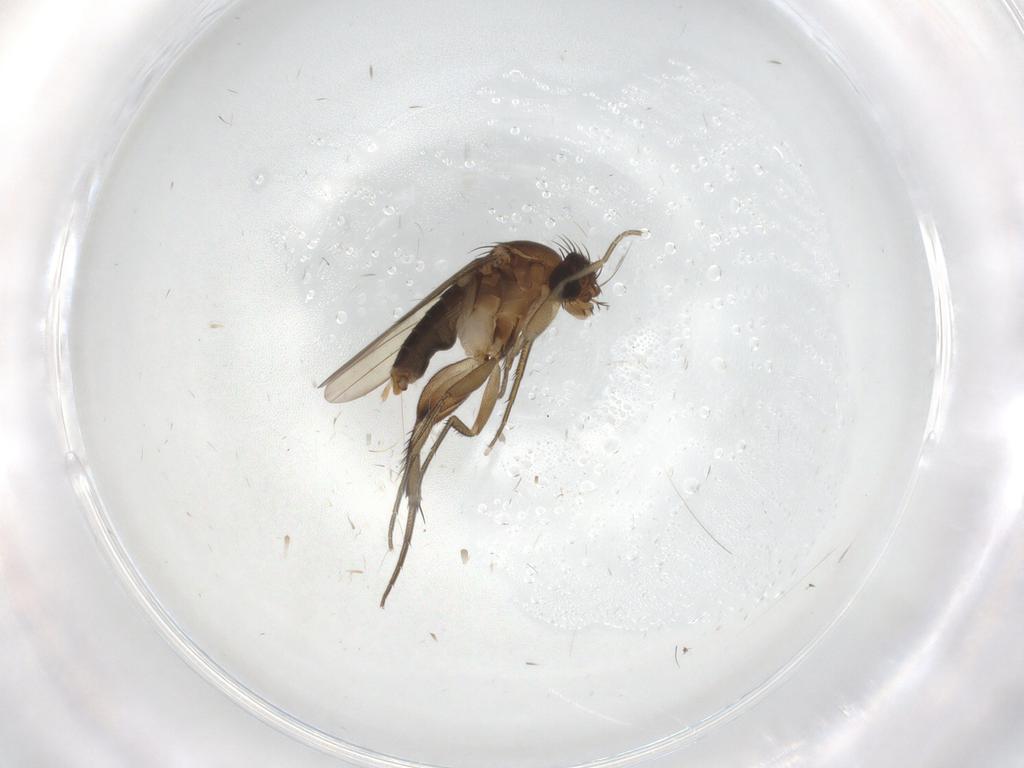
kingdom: Animalia
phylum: Arthropoda
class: Insecta
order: Diptera
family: Phoridae
